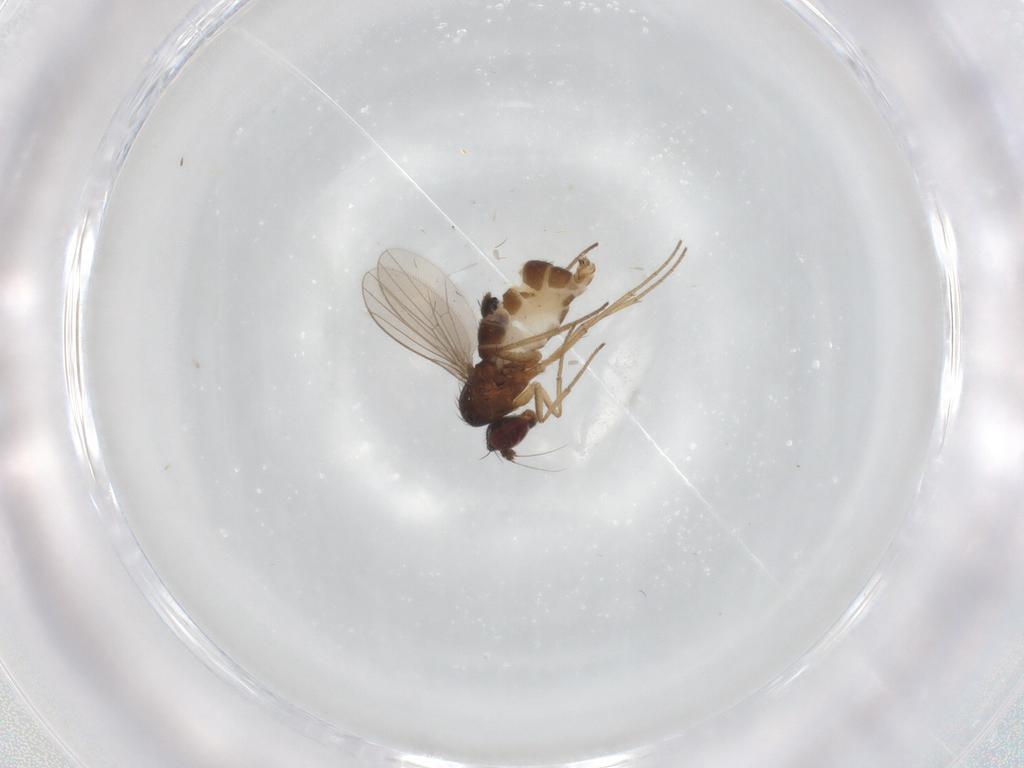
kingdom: Animalia
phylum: Arthropoda
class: Insecta
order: Diptera
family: Dolichopodidae
